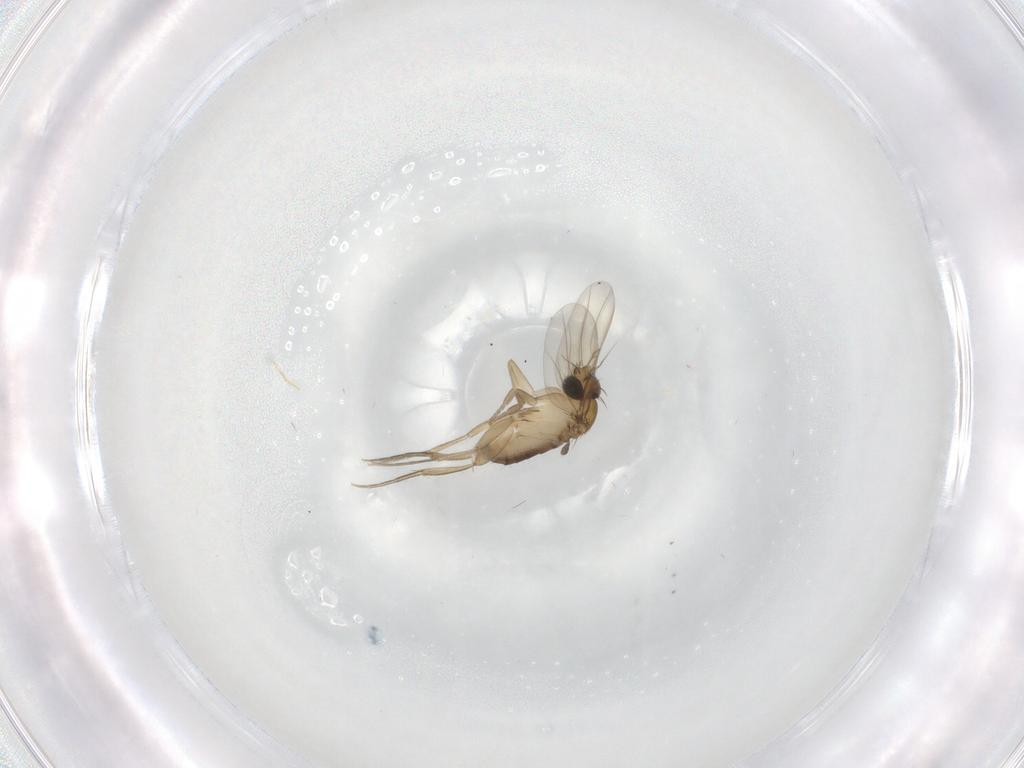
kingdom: Animalia
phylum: Arthropoda
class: Insecta
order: Diptera
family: Phoridae
